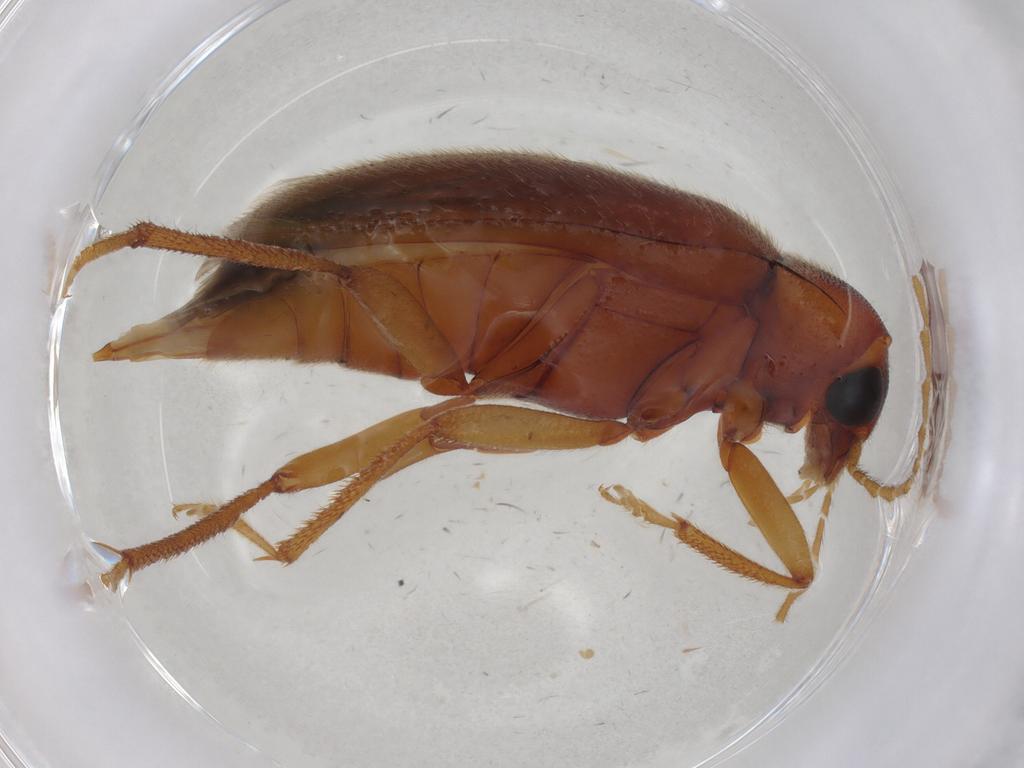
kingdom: Animalia
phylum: Arthropoda
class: Insecta
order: Coleoptera
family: Ptilodactylidae
